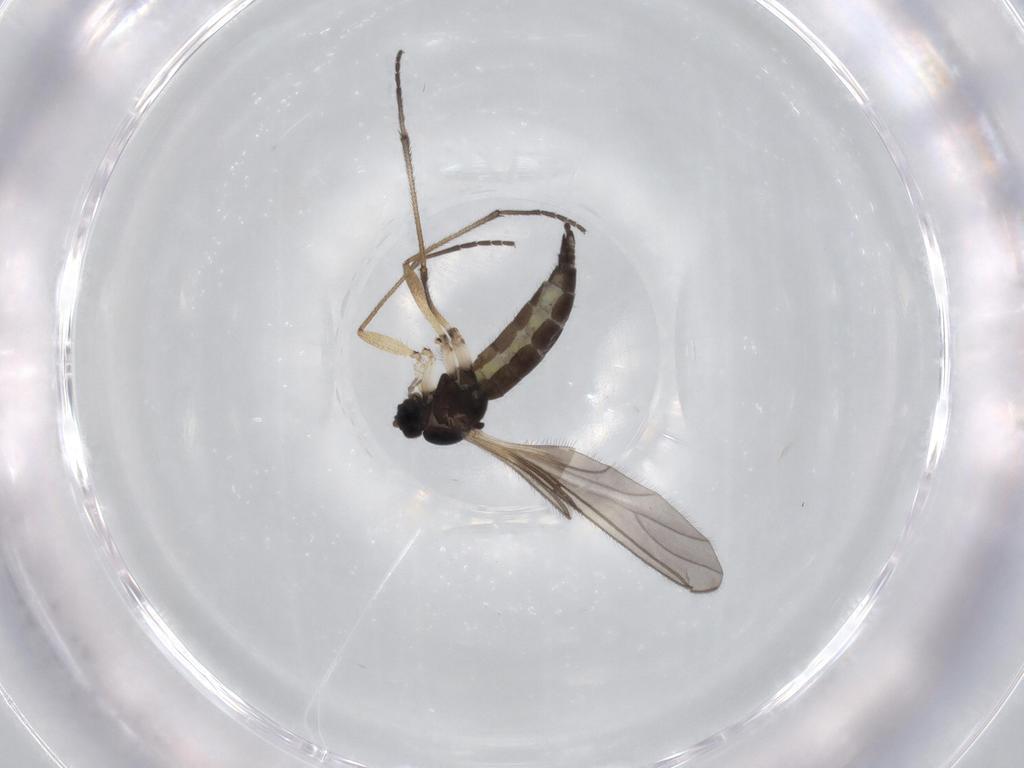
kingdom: Animalia
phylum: Arthropoda
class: Insecta
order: Diptera
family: Sciaridae
